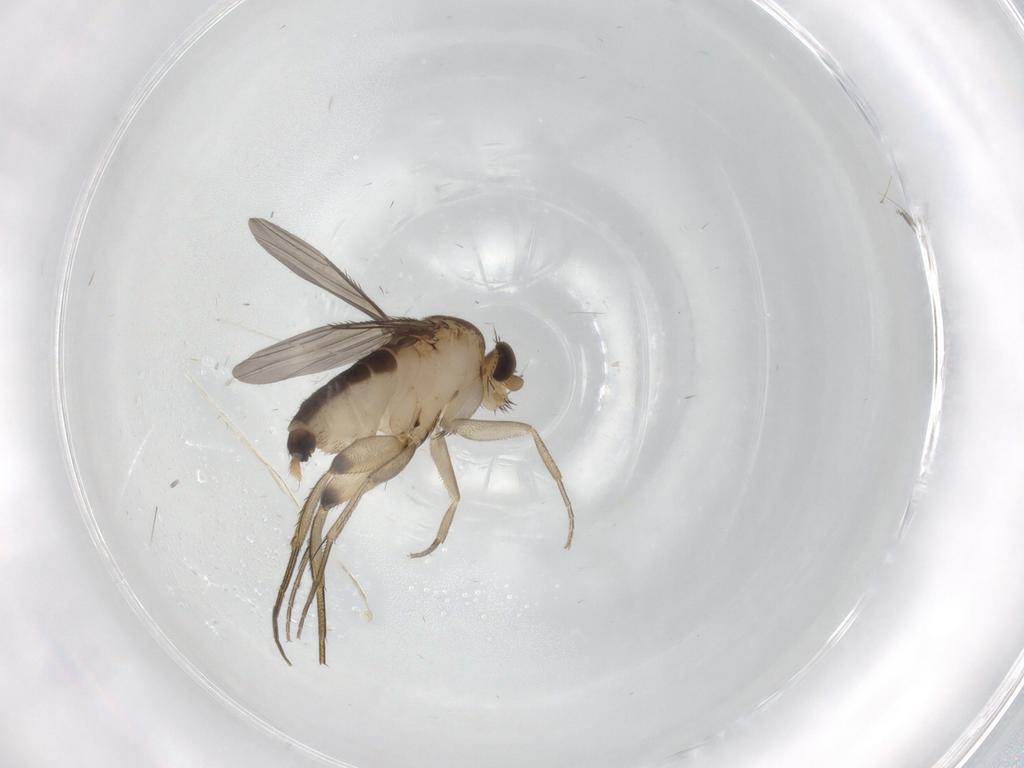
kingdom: Animalia
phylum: Arthropoda
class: Insecta
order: Diptera
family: Phoridae
